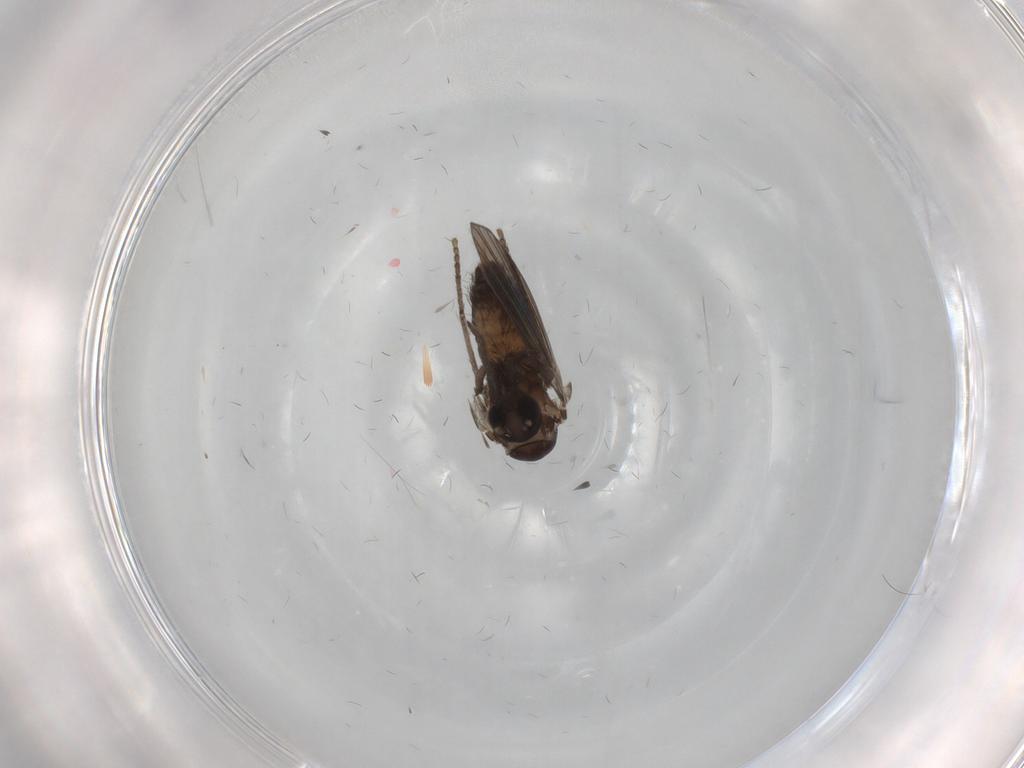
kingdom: Animalia
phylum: Arthropoda
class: Insecta
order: Diptera
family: Psychodidae
